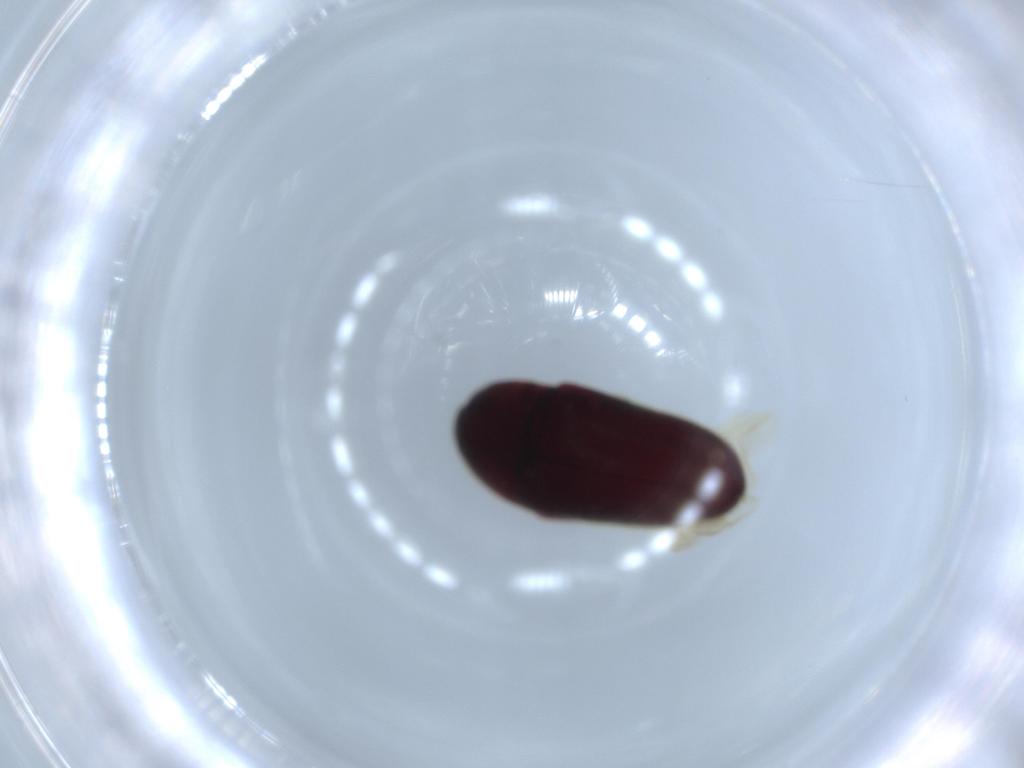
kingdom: Animalia
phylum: Arthropoda
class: Insecta
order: Coleoptera
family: Throscidae
